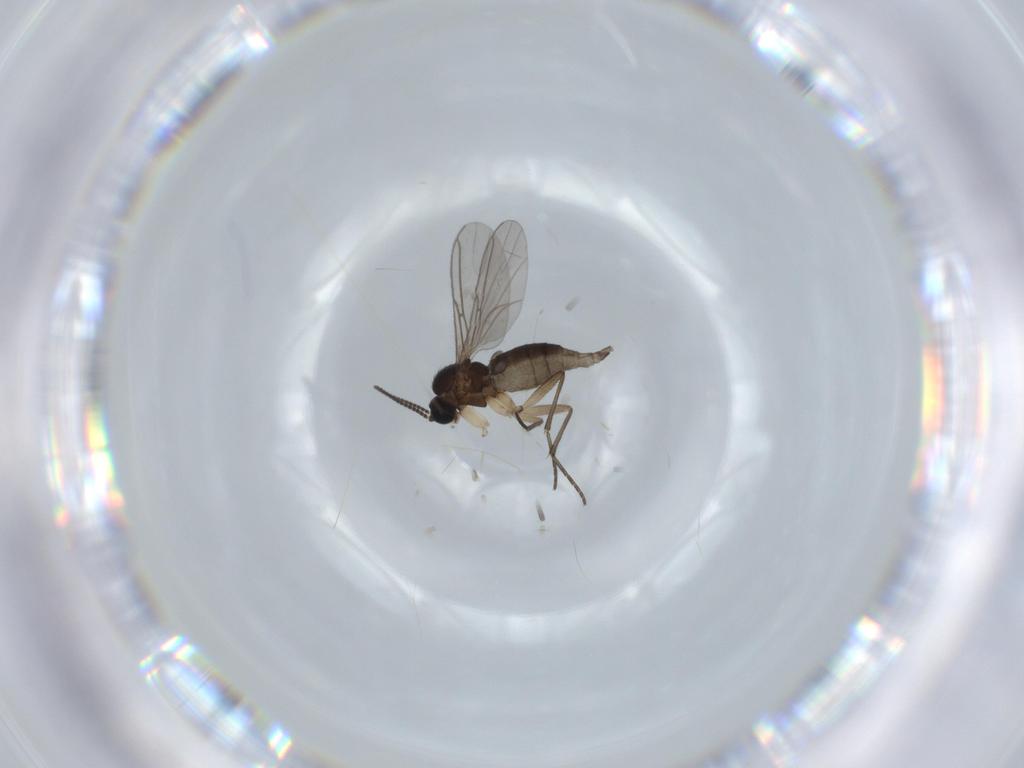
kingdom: Animalia
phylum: Arthropoda
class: Insecta
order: Diptera
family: Sciaridae
